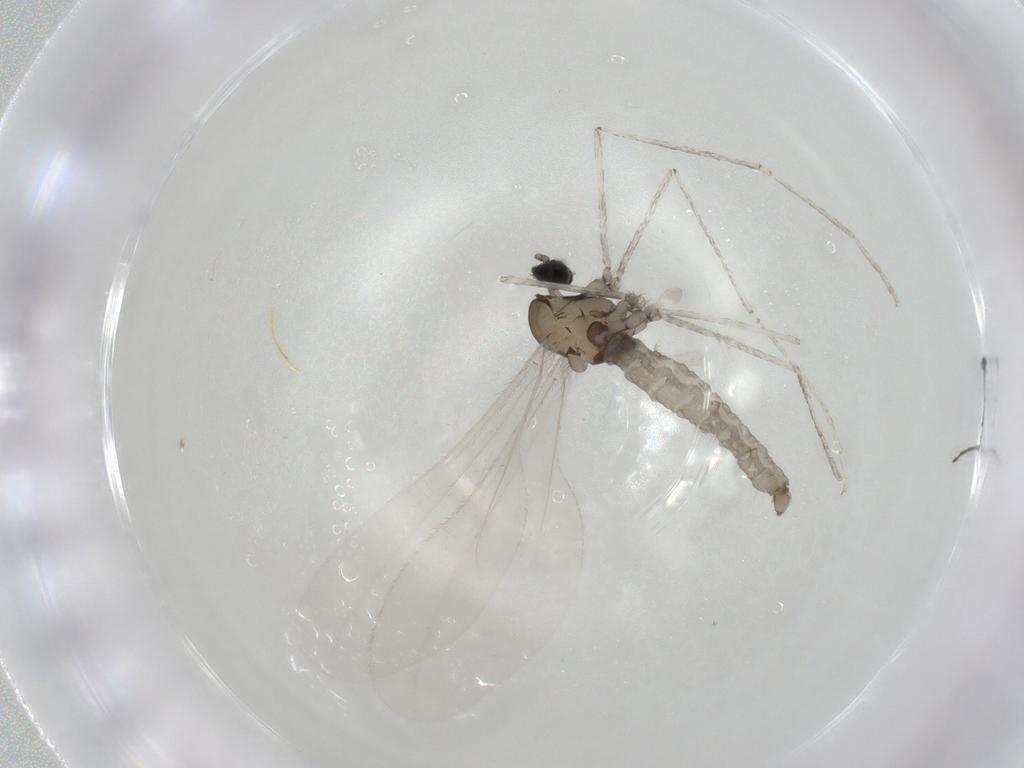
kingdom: Animalia
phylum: Arthropoda
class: Insecta
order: Diptera
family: Cecidomyiidae
